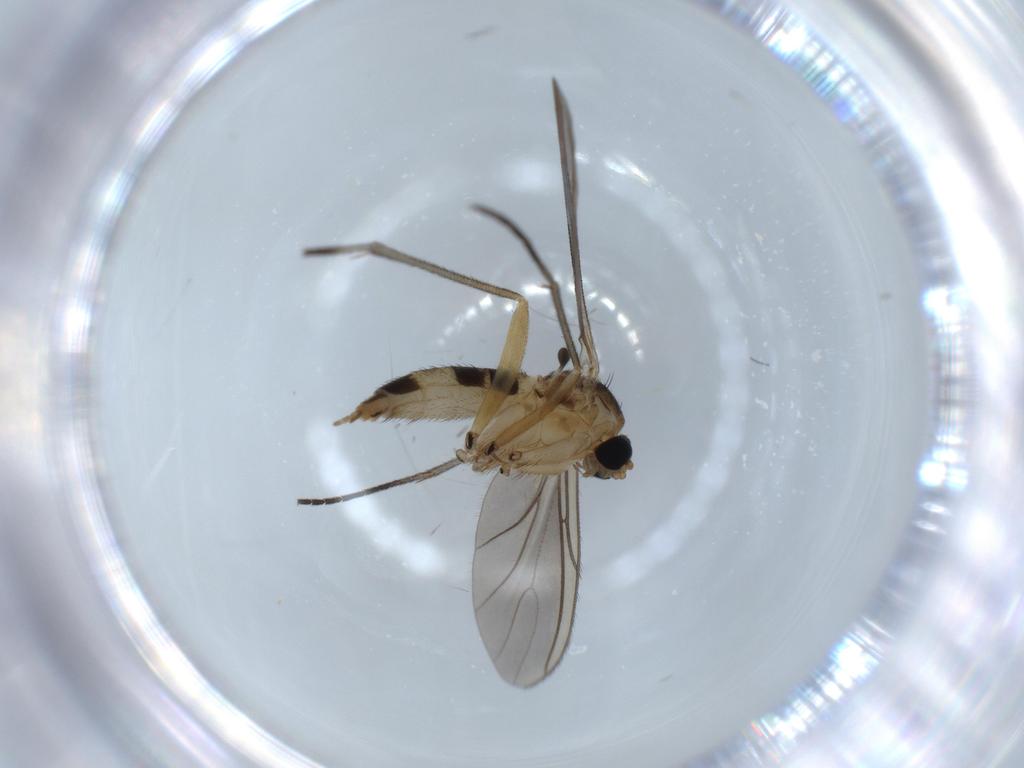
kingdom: Animalia
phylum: Arthropoda
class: Insecta
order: Diptera
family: Sciaridae
